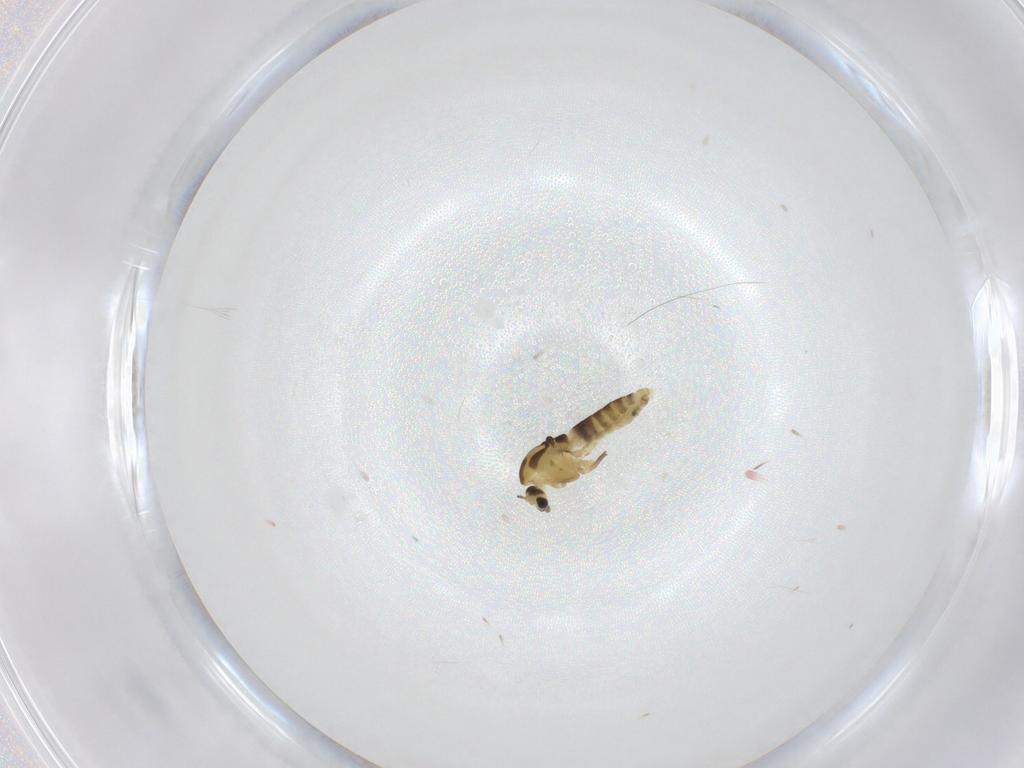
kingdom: Animalia
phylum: Arthropoda
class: Insecta
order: Diptera
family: Chironomidae
